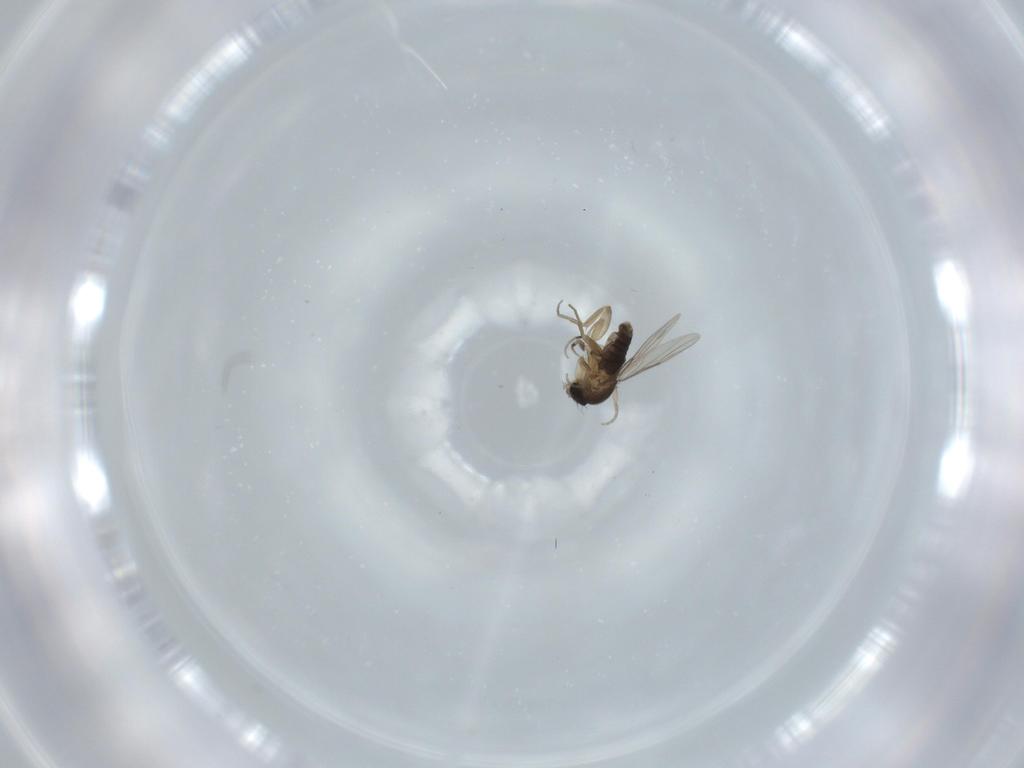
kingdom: Animalia
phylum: Arthropoda
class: Insecta
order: Diptera
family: Phoridae
